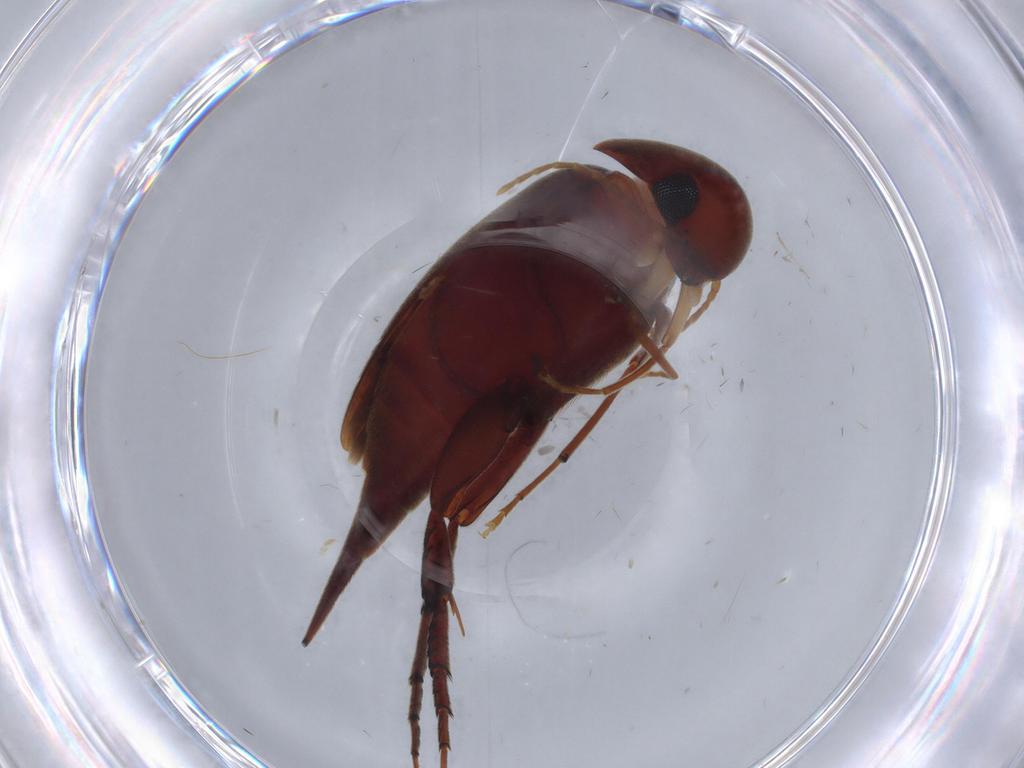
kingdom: Animalia
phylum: Arthropoda
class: Insecta
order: Coleoptera
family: Mordellidae
